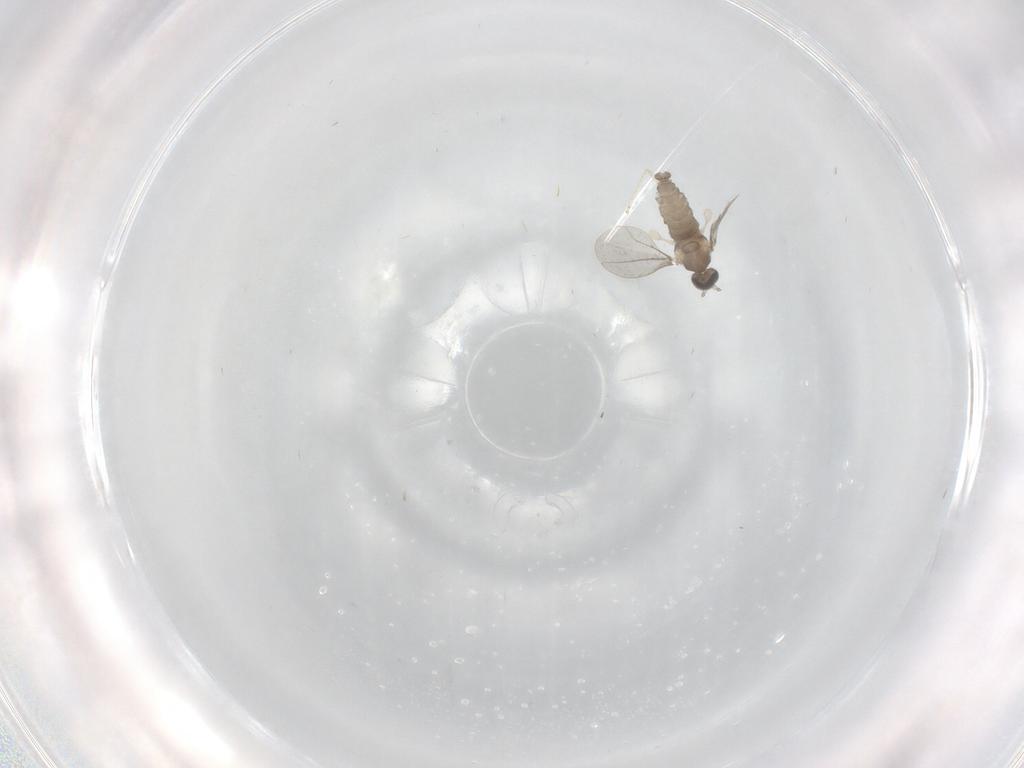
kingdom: Animalia
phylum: Arthropoda
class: Insecta
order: Diptera
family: Cecidomyiidae
